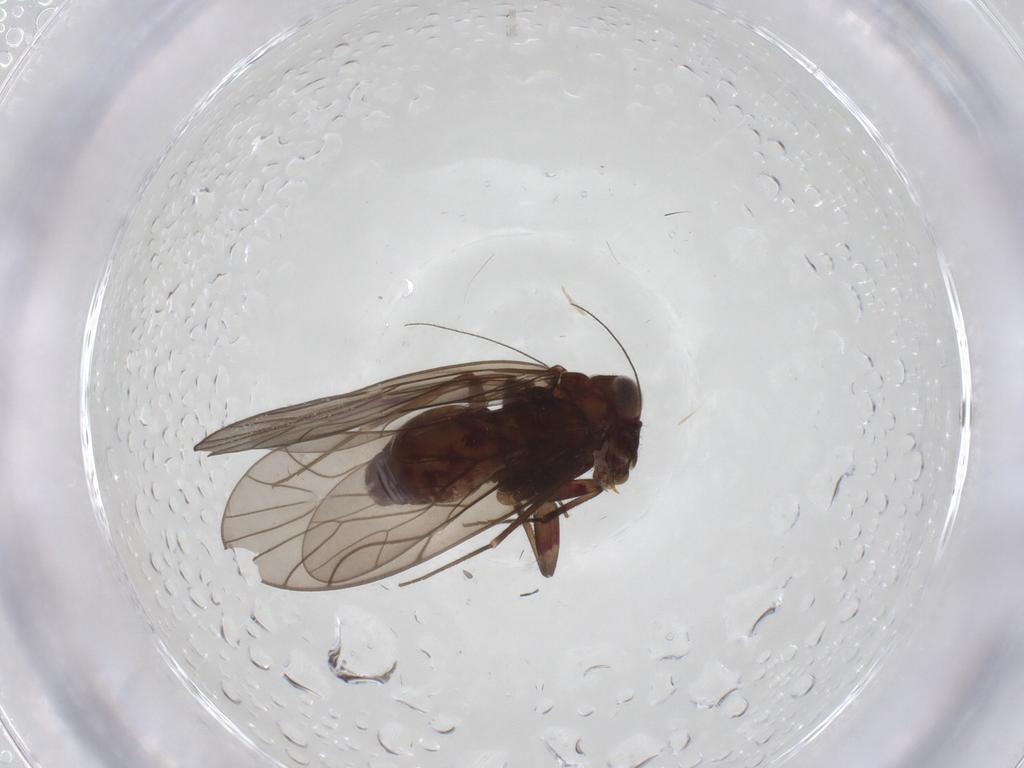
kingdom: Animalia
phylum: Arthropoda
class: Insecta
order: Psocodea
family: Philotarsidae
